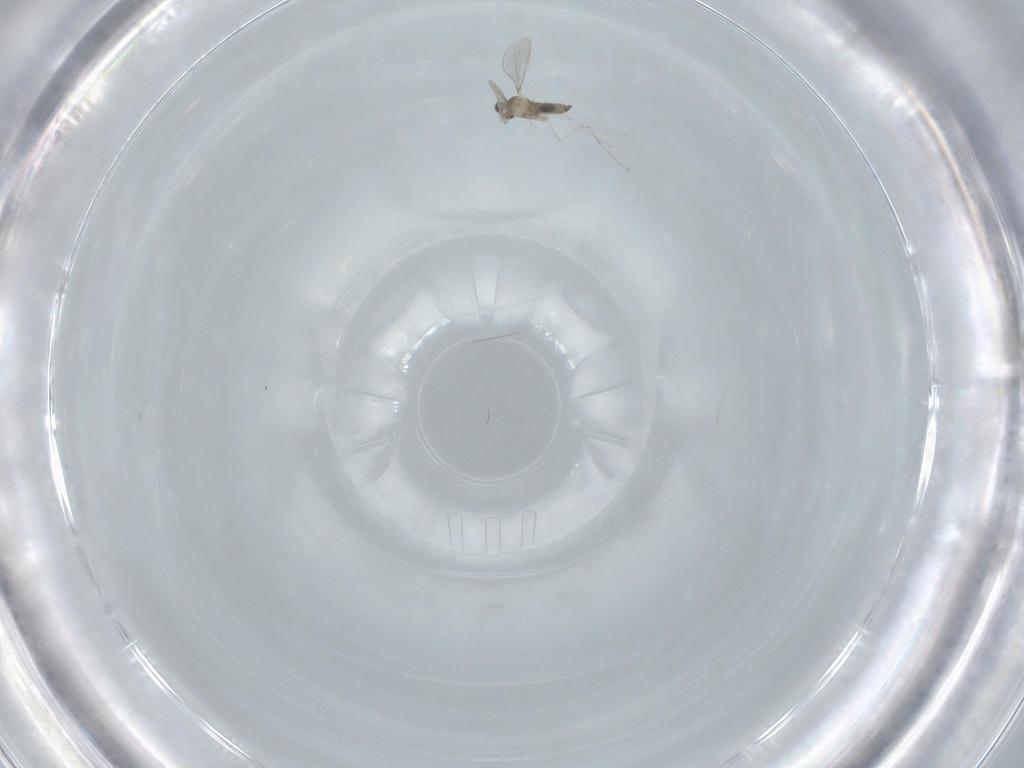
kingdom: Animalia
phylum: Arthropoda
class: Insecta
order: Diptera
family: Cecidomyiidae
